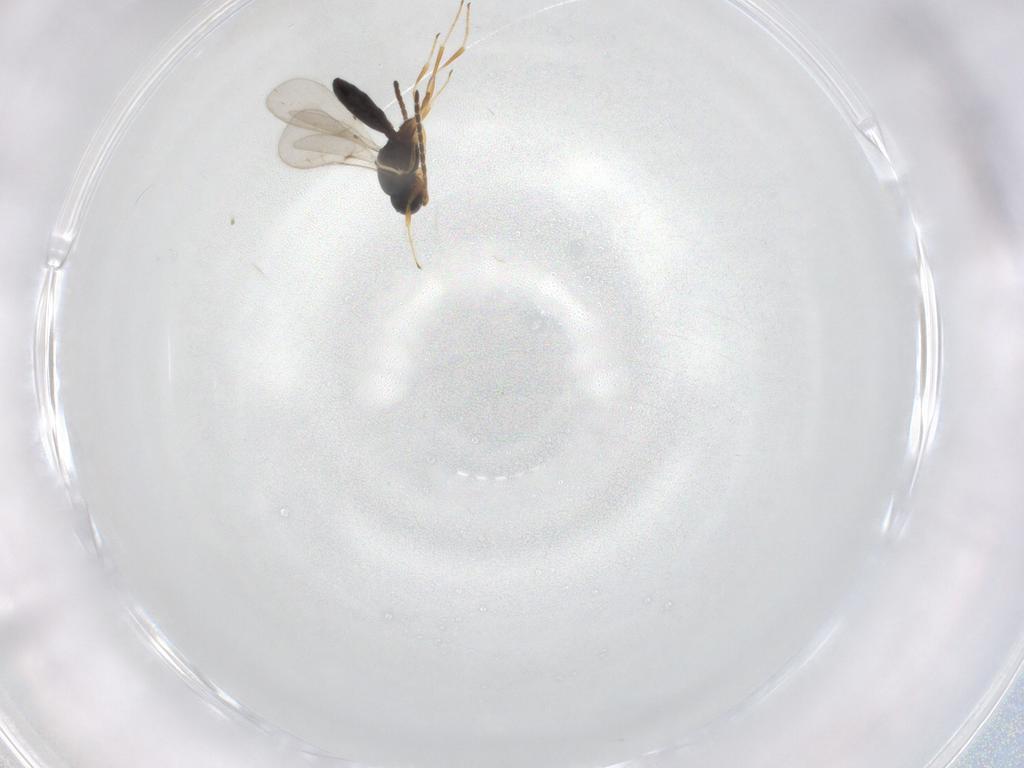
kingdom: Animalia
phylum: Arthropoda
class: Insecta
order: Hymenoptera
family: Scelionidae
